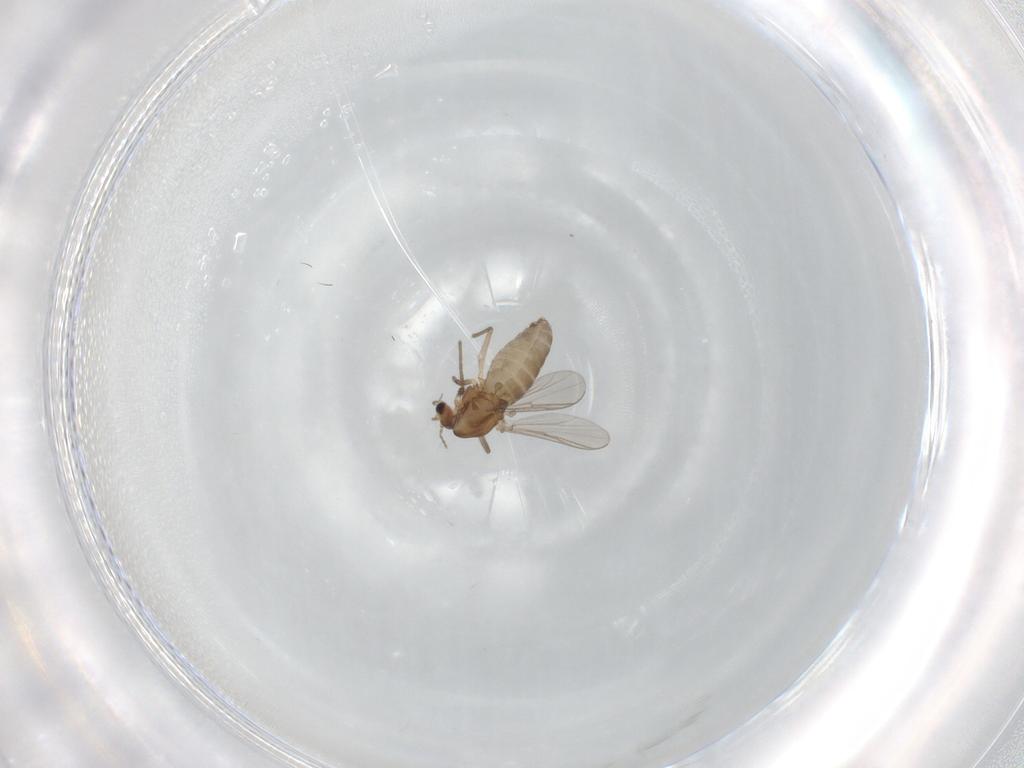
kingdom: Animalia
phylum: Arthropoda
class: Insecta
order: Diptera
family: Chironomidae
